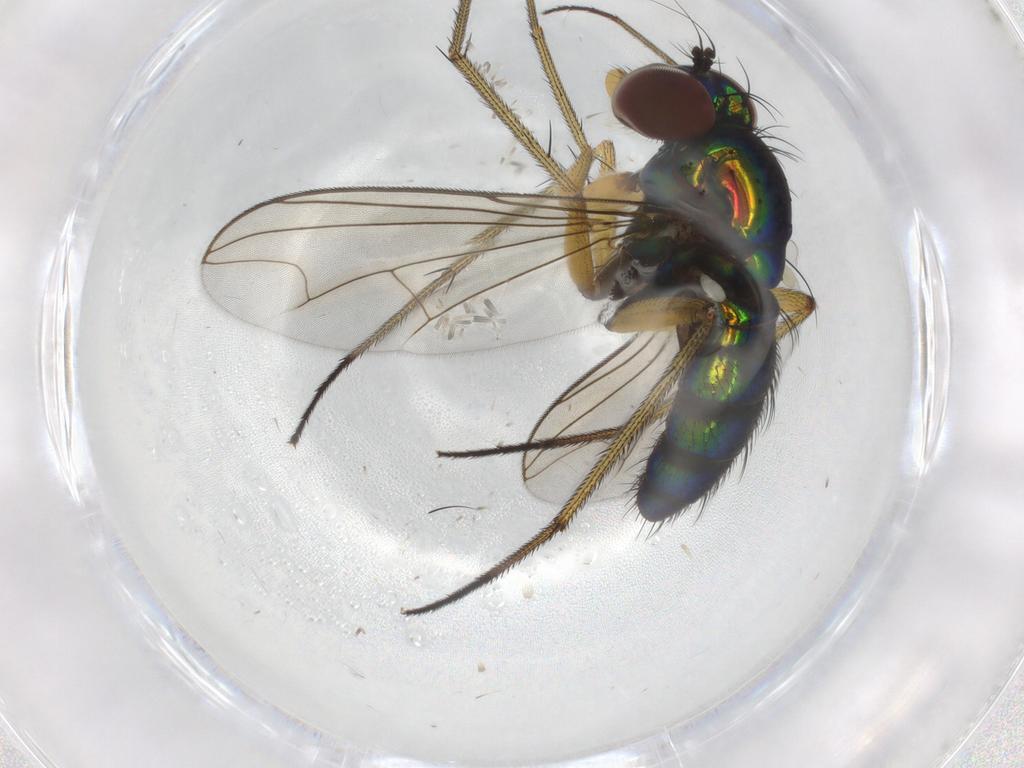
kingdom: Animalia
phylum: Arthropoda
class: Insecta
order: Diptera
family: Dolichopodidae
